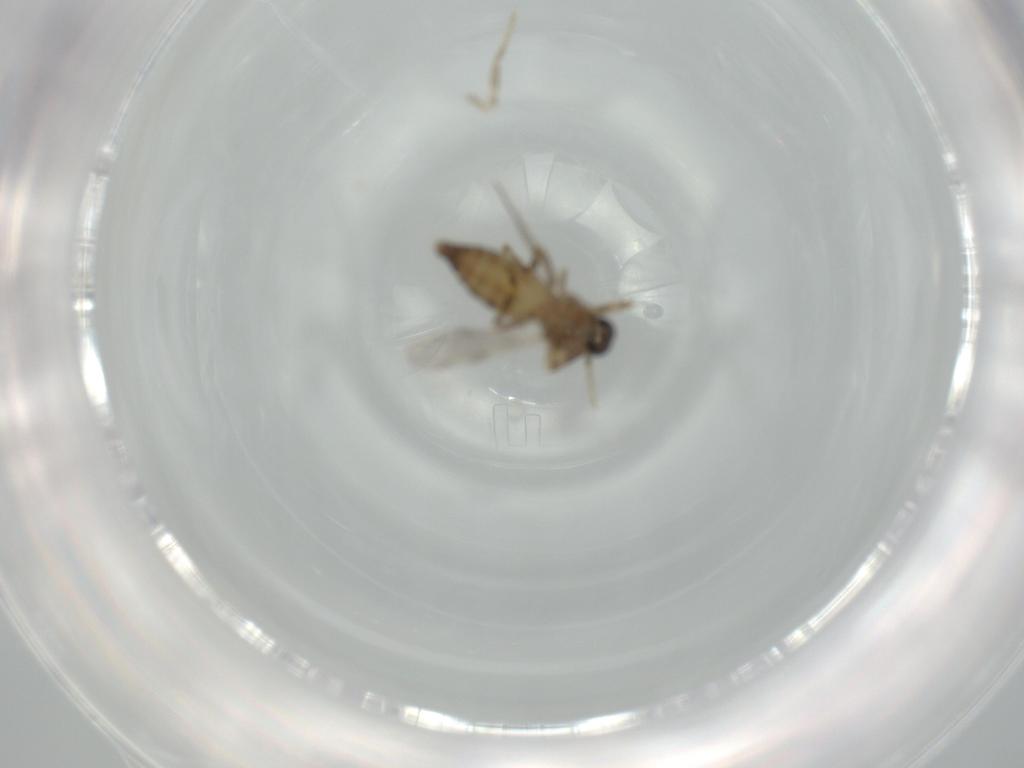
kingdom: Animalia
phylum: Arthropoda
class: Insecta
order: Diptera
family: Ceratopogonidae
